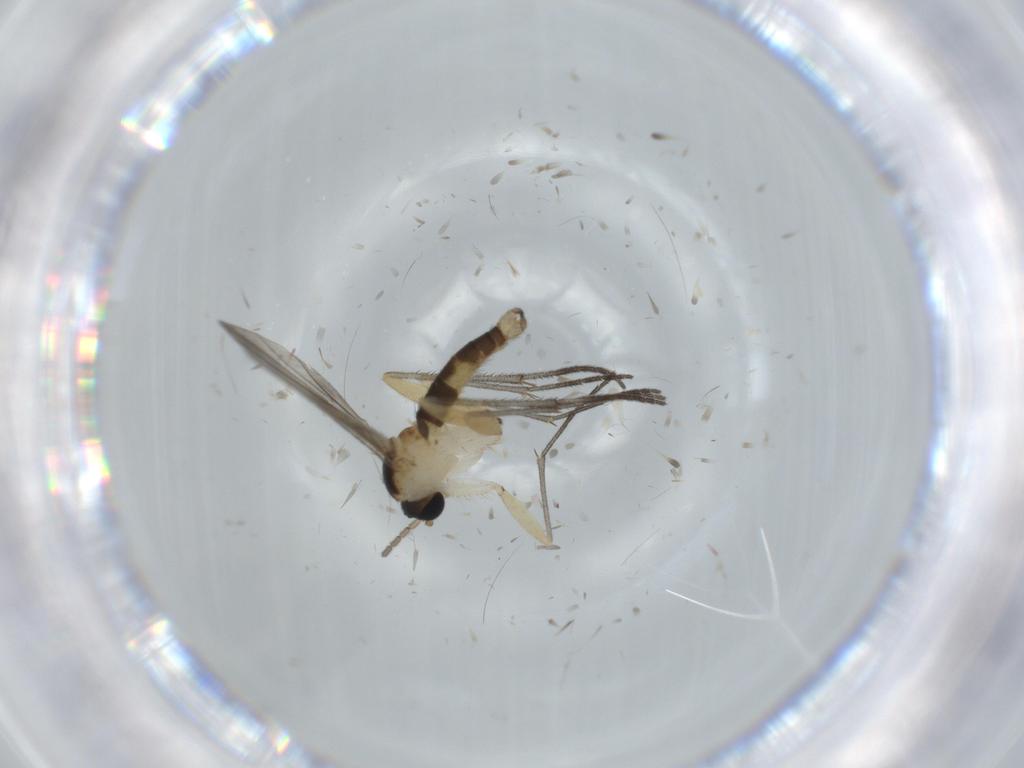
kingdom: Animalia
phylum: Arthropoda
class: Insecta
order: Diptera
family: Sciaridae
